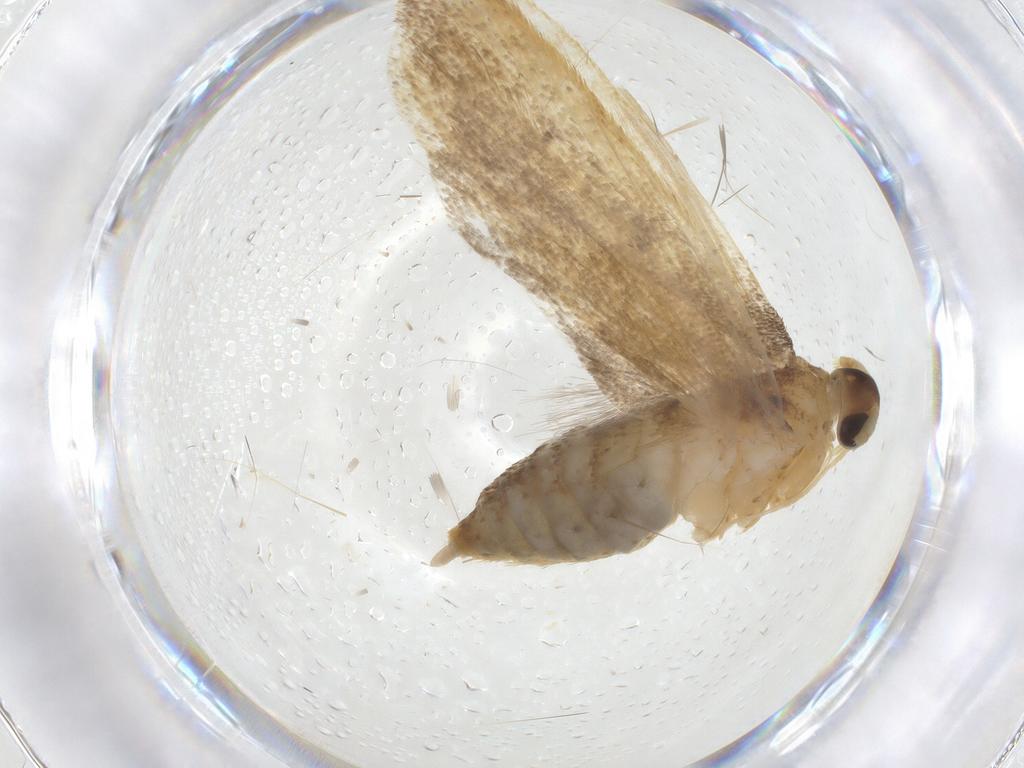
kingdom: Animalia
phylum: Arthropoda
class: Insecta
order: Lepidoptera
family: Lecithoceridae
